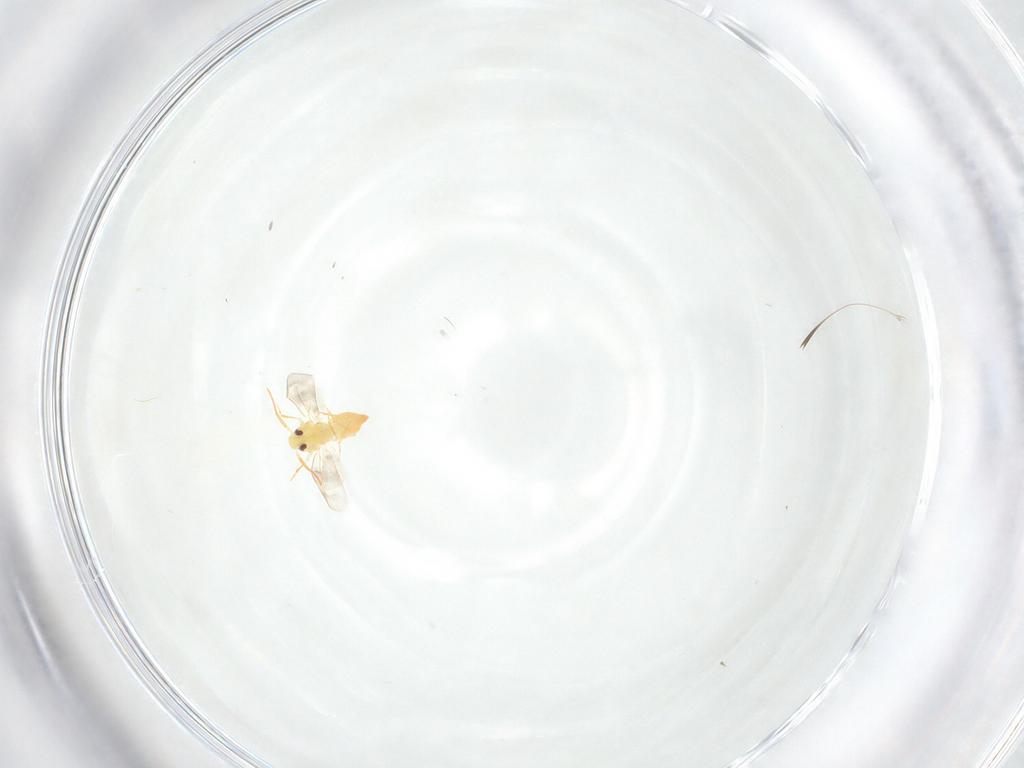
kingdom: Animalia
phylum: Arthropoda
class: Insecta
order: Hemiptera
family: Aleyrodidae
